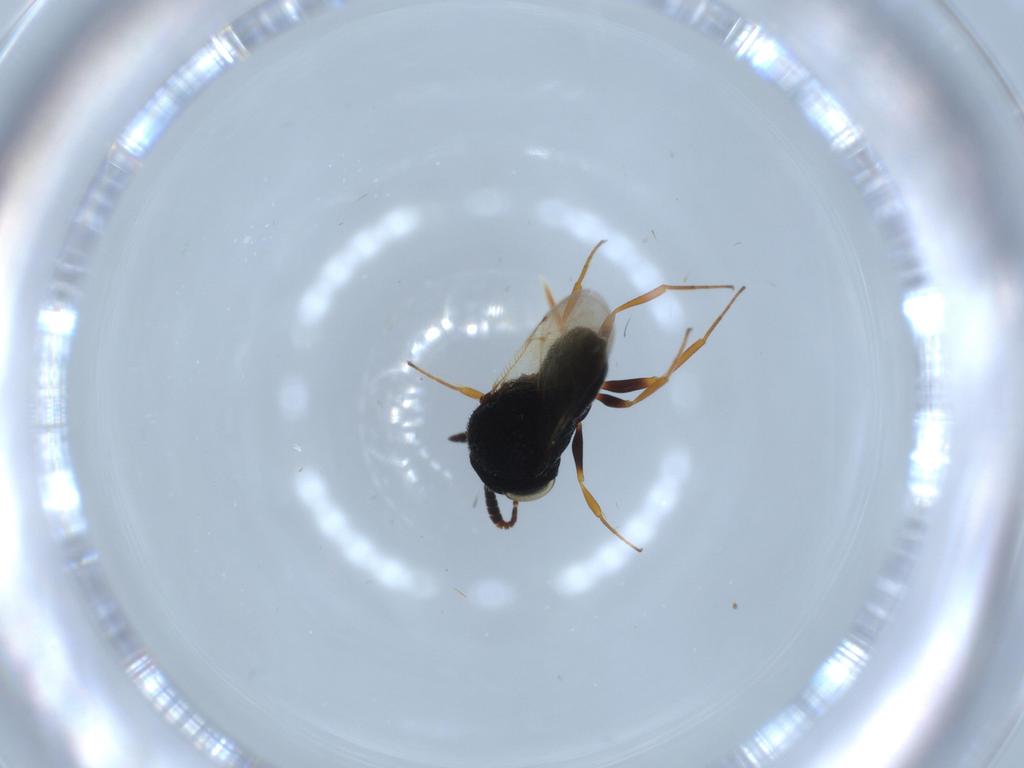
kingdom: Animalia
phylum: Arthropoda
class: Insecta
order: Hymenoptera
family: Scelionidae
